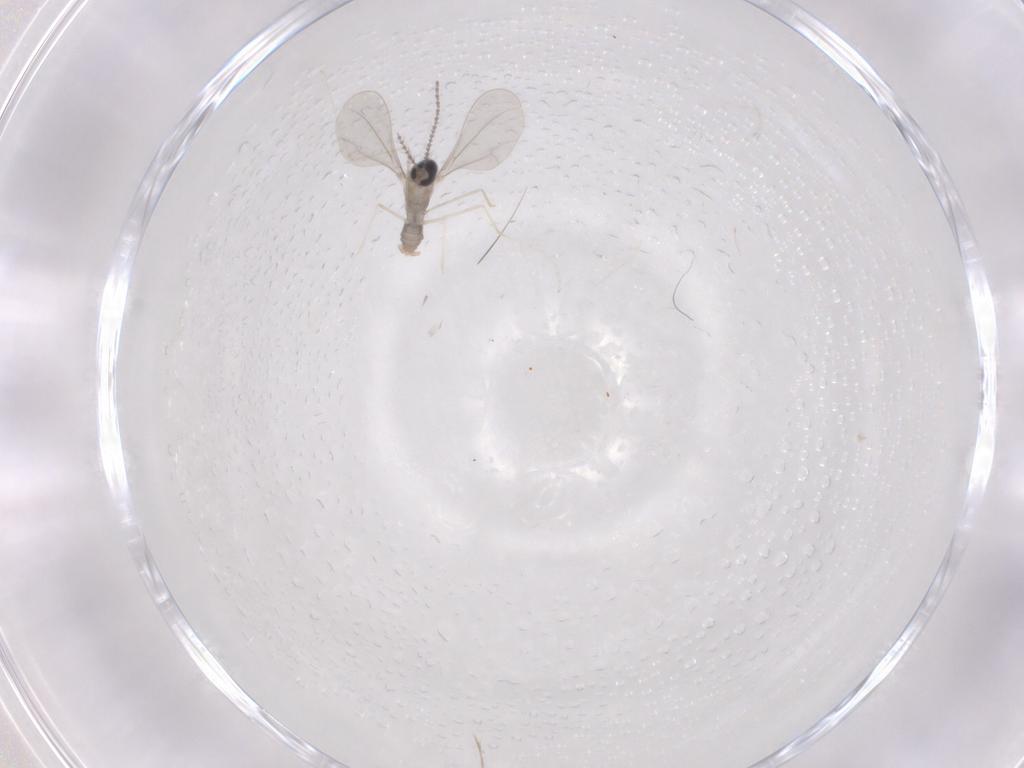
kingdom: Animalia
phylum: Arthropoda
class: Insecta
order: Diptera
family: Cecidomyiidae
